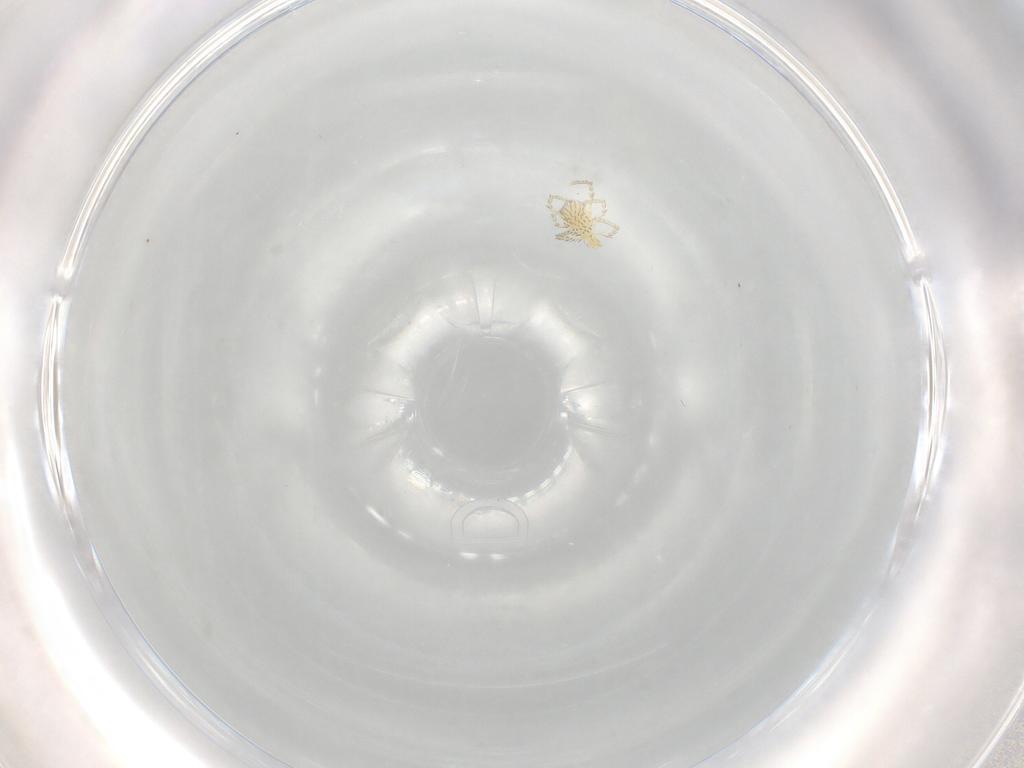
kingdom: Animalia
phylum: Arthropoda
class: Arachnida
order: Trombidiformes
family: Erythraeidae
